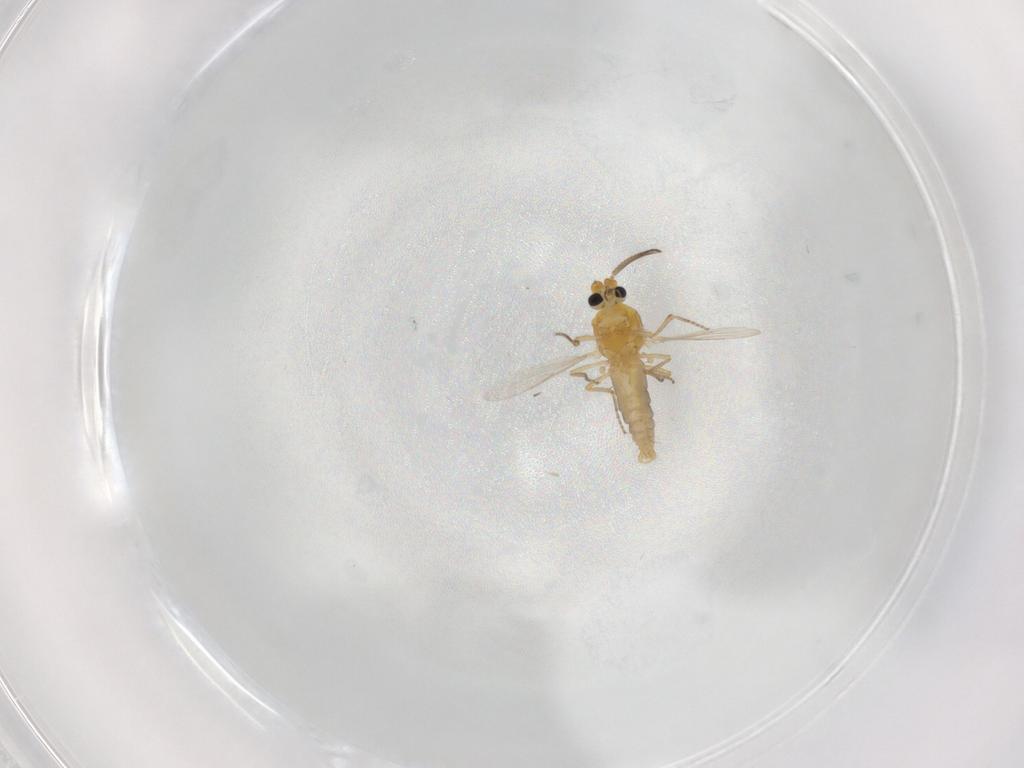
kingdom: Animalia
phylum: Arthropoda
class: Insecta
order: Diptera
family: Ceratopogonidae
